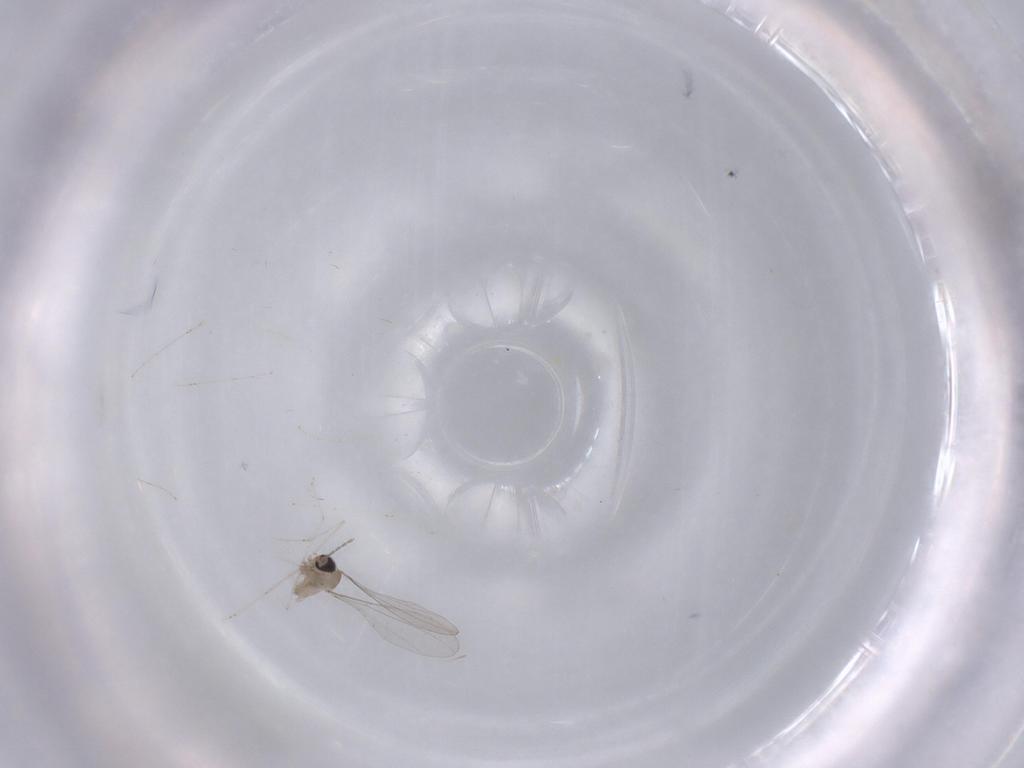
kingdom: Animalia
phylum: Arthropoda
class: Insecta
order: Diptera
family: Cecidomyiidae
